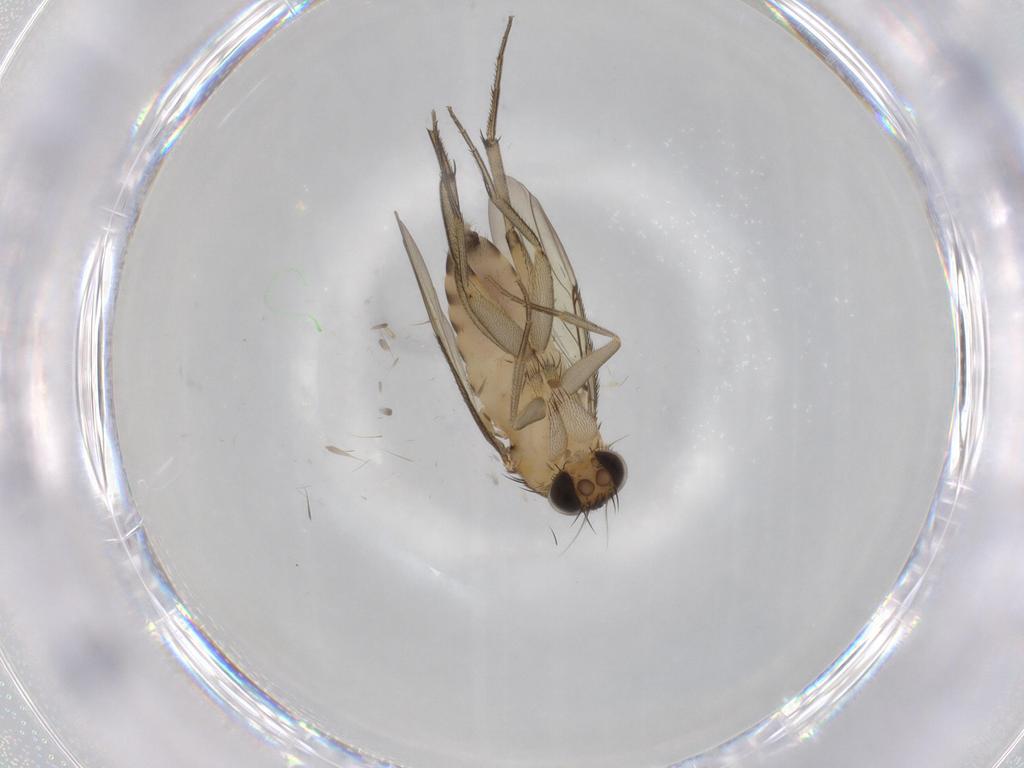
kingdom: Animalia
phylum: Arthropoda
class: Insecta
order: Diptera
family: Phoridae
